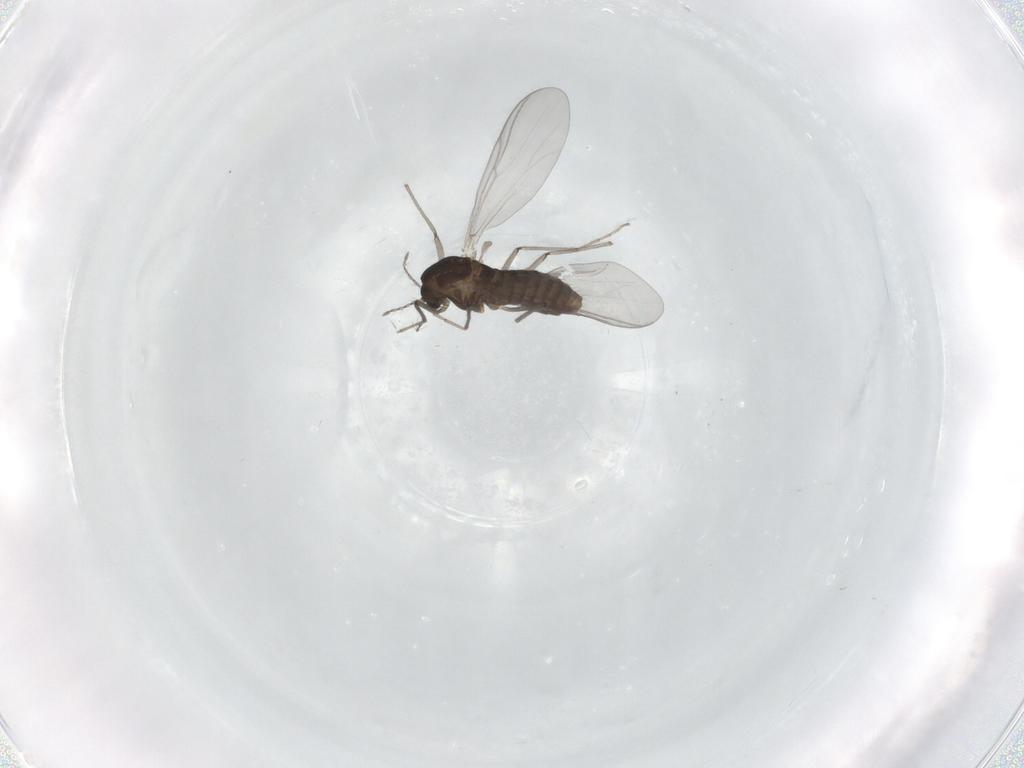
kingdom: Animalia
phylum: Arthropoda
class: Insecta
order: Diptera
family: Chironomidae
